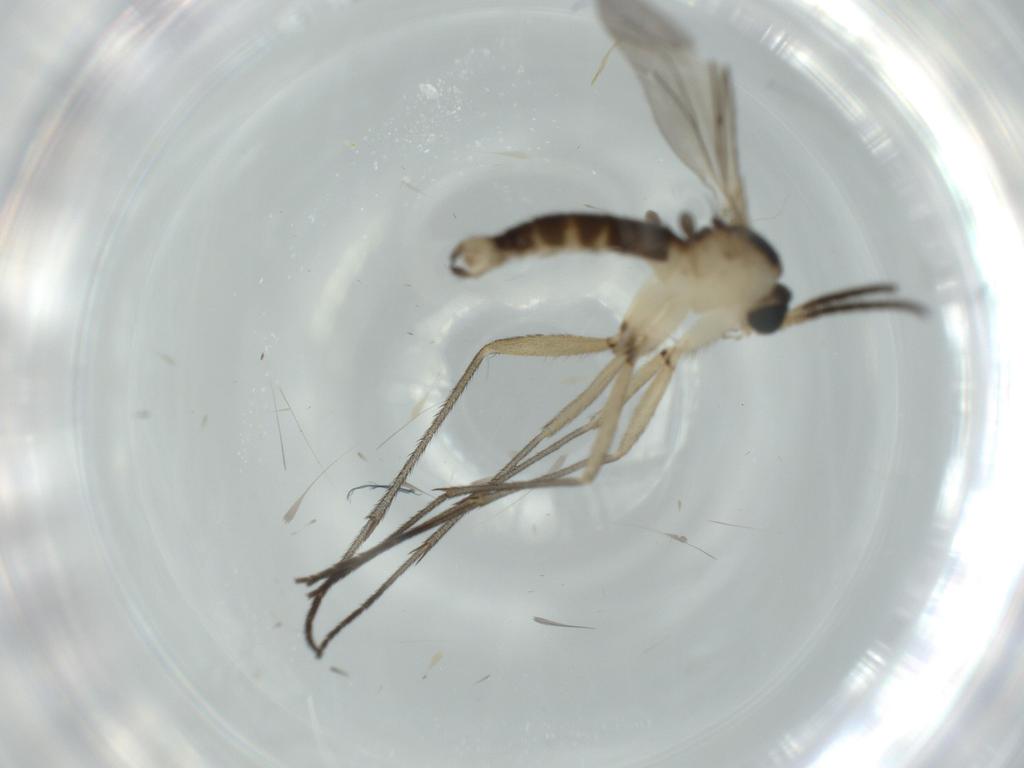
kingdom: Animalia
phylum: Arthropoda
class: Insecta
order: Diptera
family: Sciaridae
